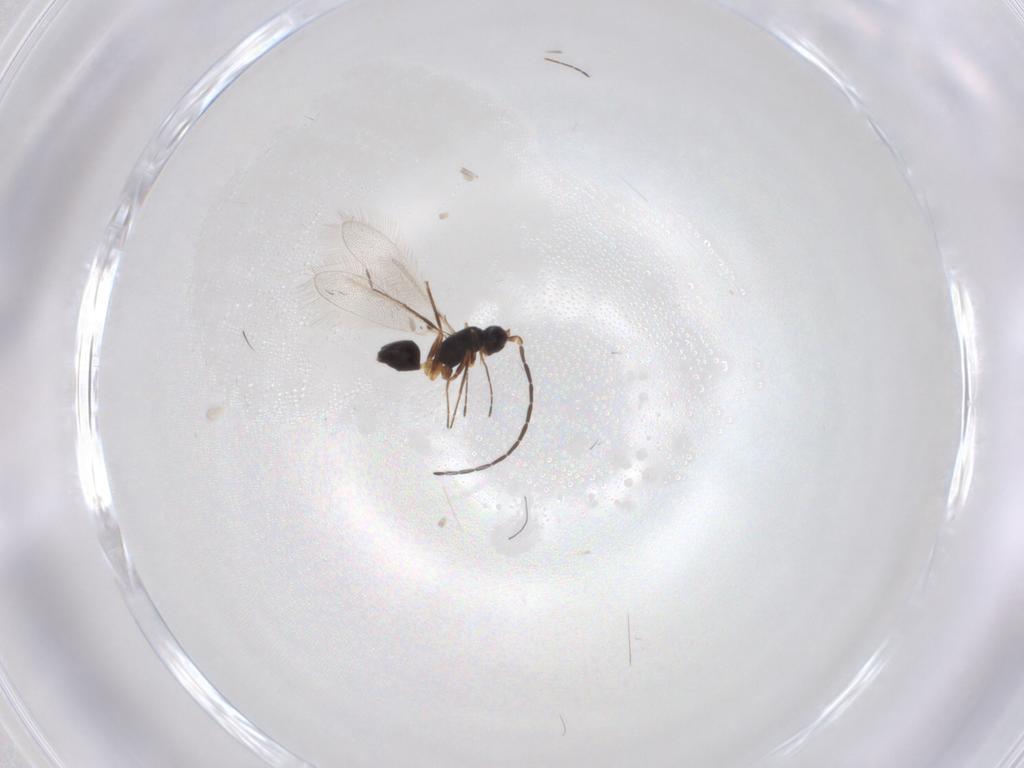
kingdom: Animalia
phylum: Arthropoda
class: Insecta
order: Hymenoptera
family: Mymaridae
